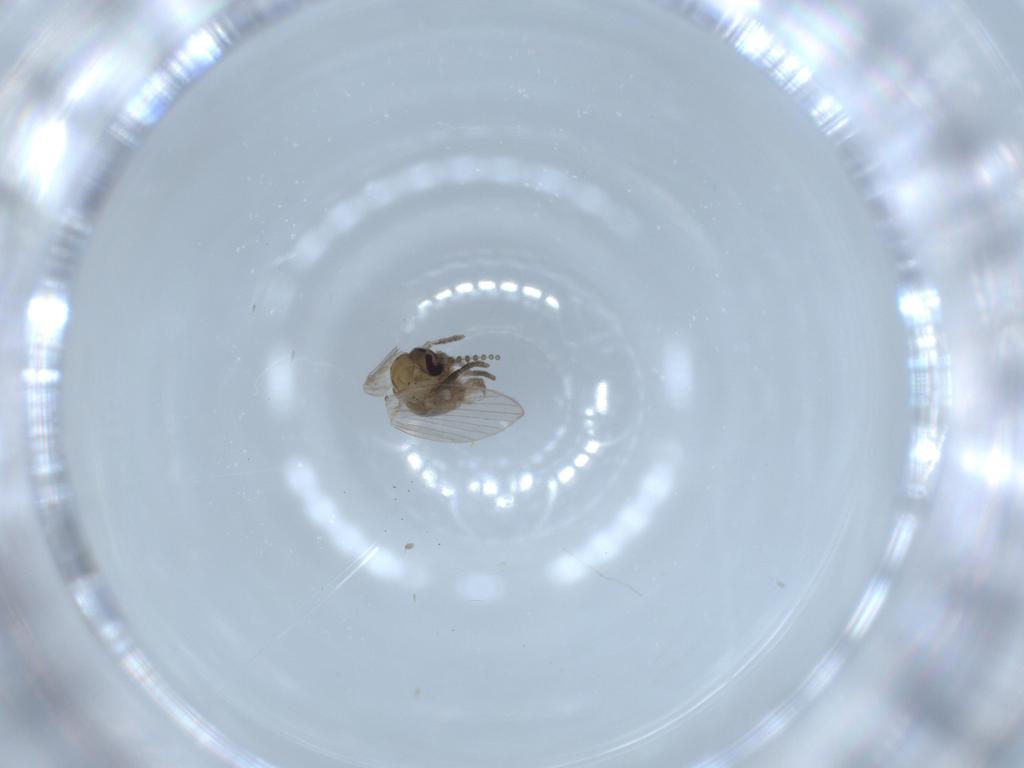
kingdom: Animalia
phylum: Arthropoda
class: Insecta
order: Diptera
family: Psychodidae
